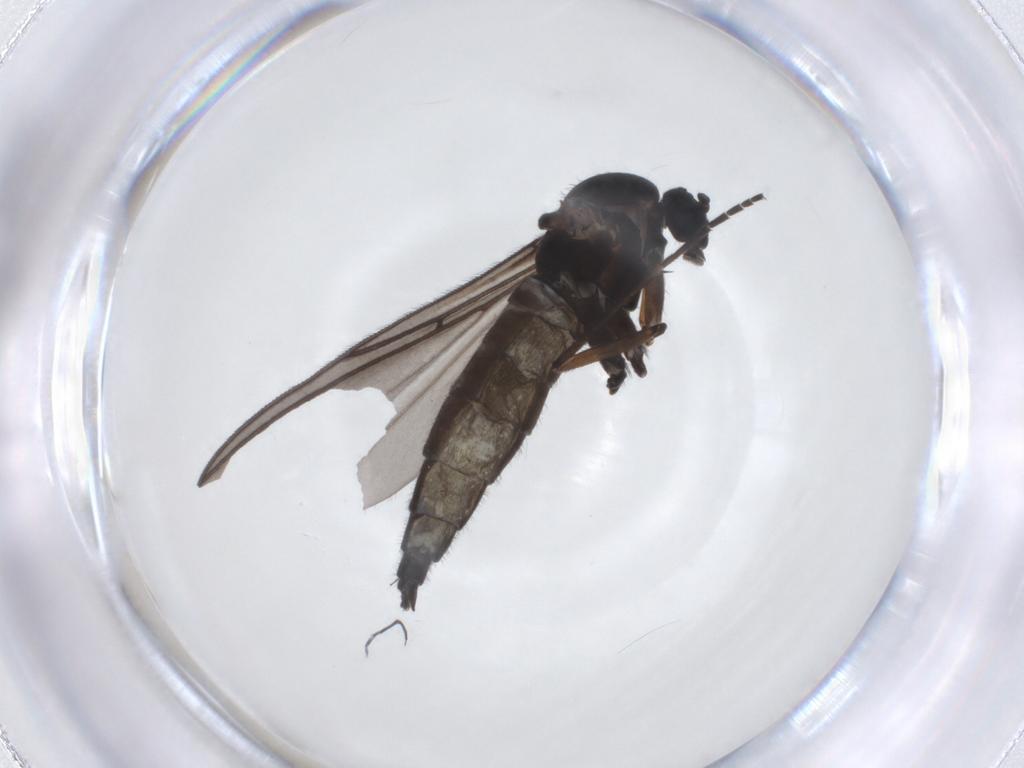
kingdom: Animalia
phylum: Arthropoda
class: Insecta
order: Diptera
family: Sciaridae
